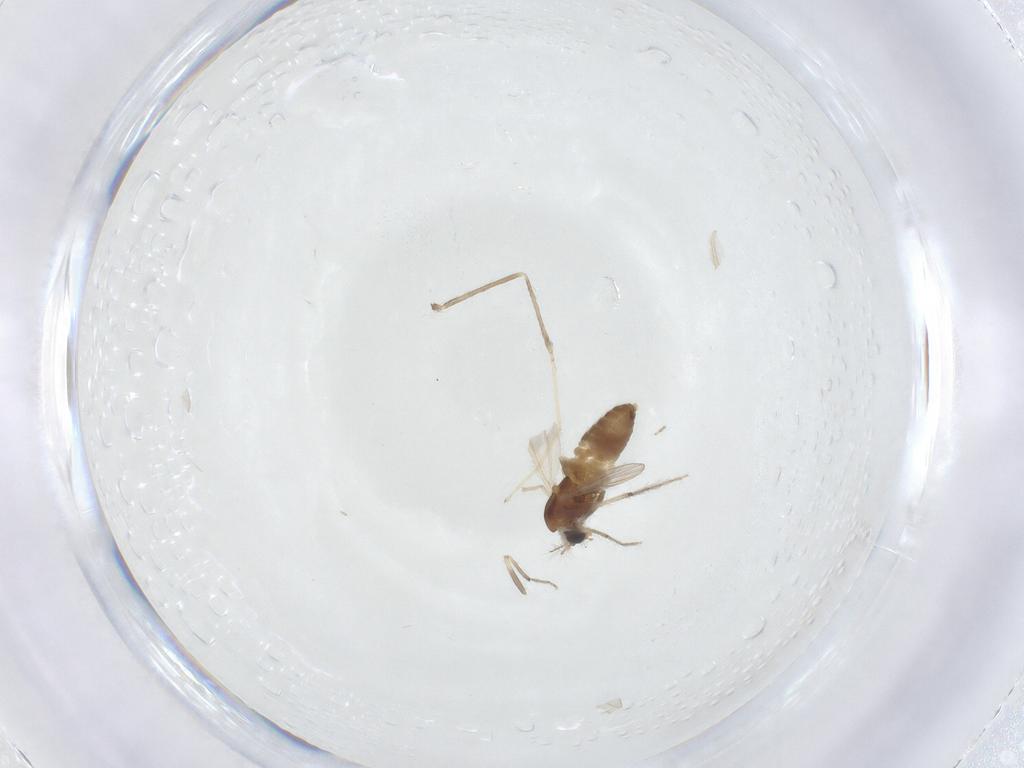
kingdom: Animalia
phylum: Arthropoda
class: Insecta
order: Diptera
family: Chironomidae
